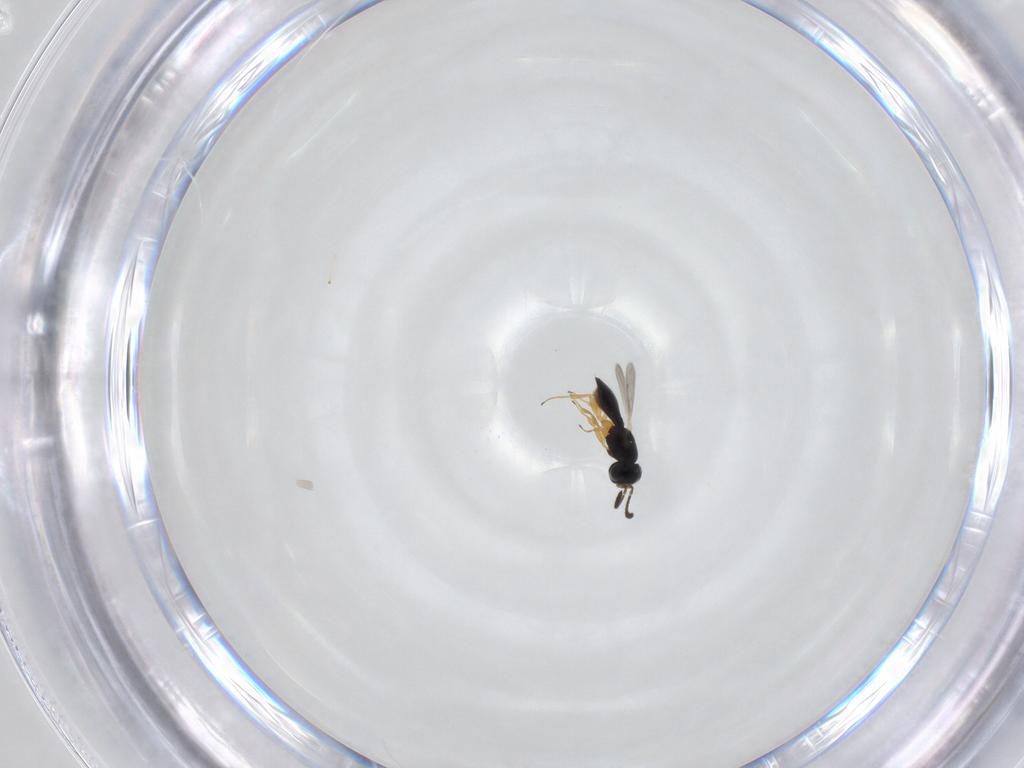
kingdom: Animalia
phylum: Arthropoda
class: Insecta
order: Hymenoptera
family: Scelionidae
